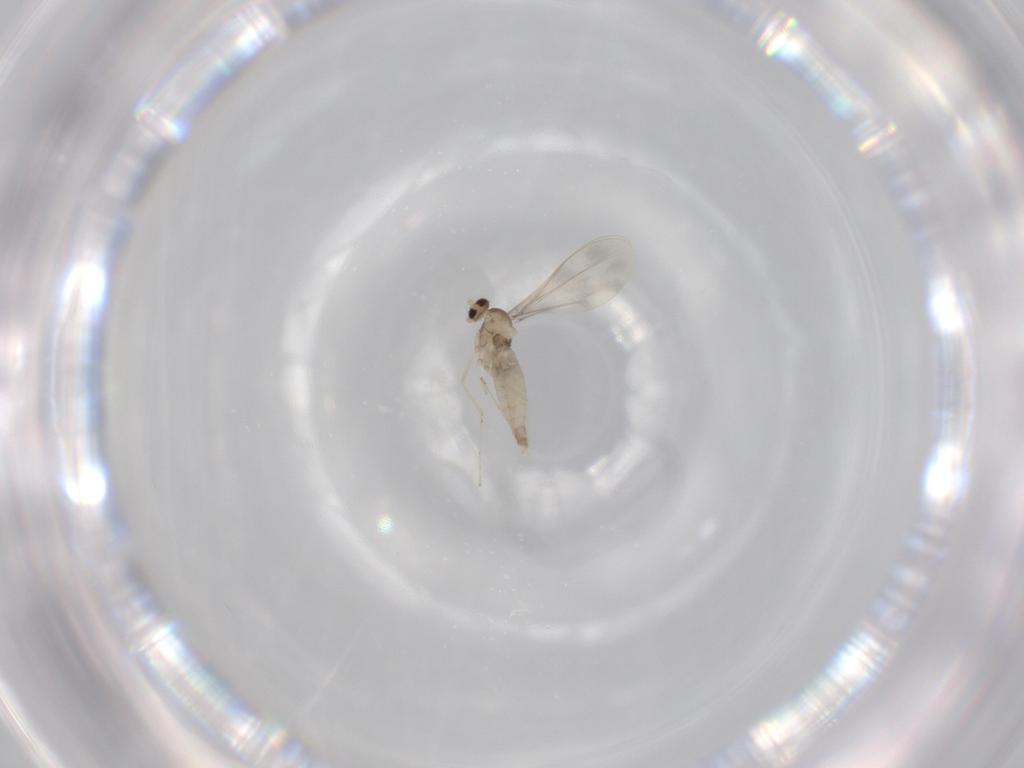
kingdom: Animalia
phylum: Arthropoda
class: Insecta
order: Diptera
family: Cecidomyiidae
